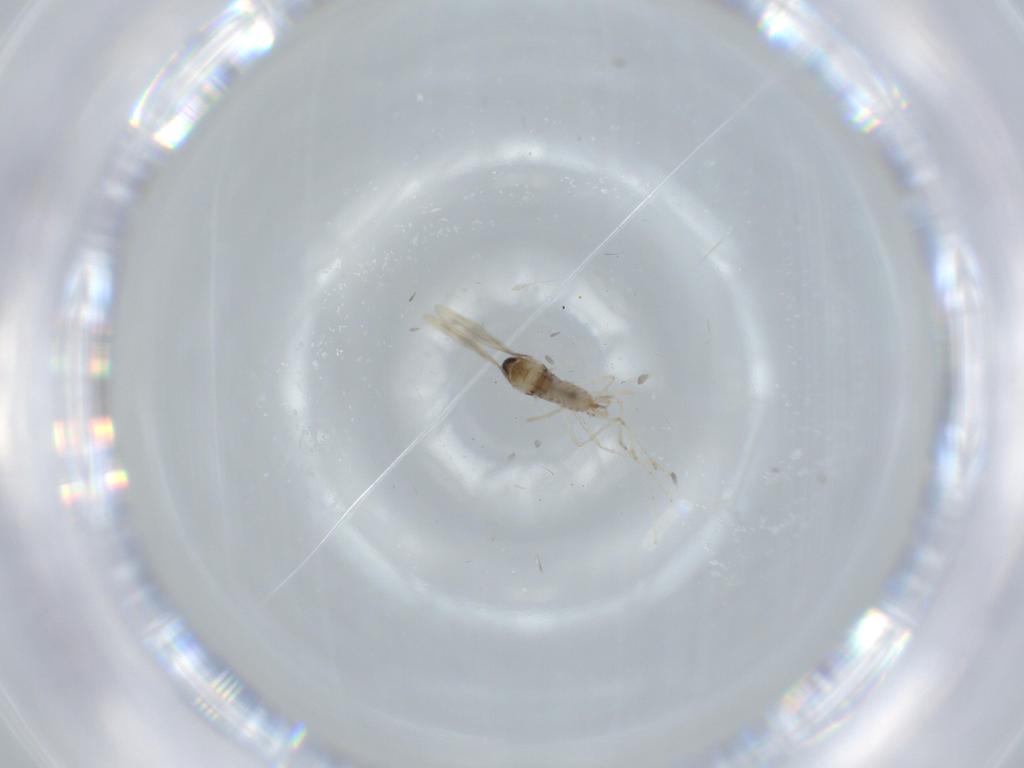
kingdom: Animalia
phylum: Arthropoda
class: Insecta
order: Diptera
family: Cecidomyiidae
